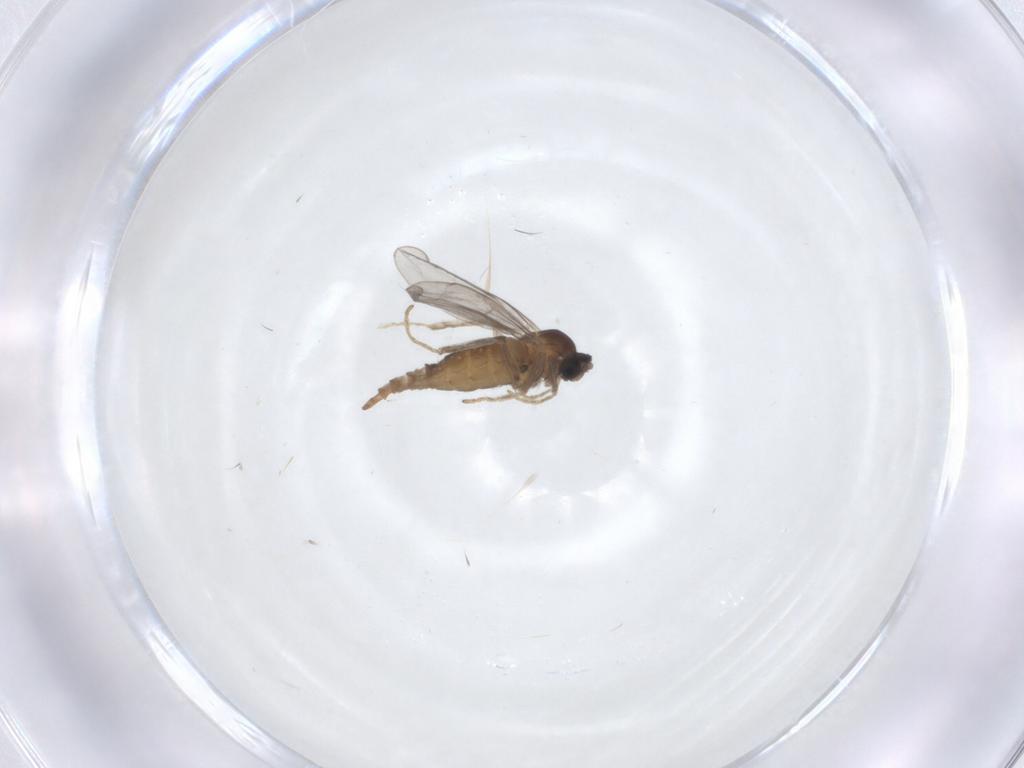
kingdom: Animalia
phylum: Arthropoda
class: Insecta
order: Diptera
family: Cecidomyiidae
